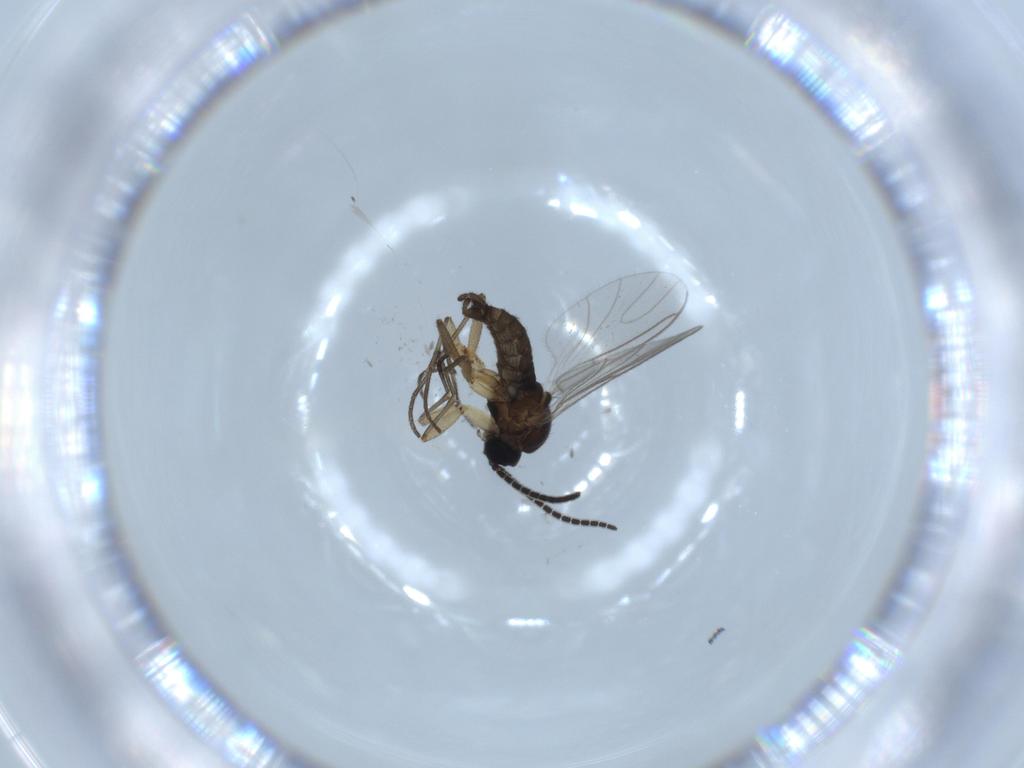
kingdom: Animalia
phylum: Arthropoda
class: Insecta
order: Diptera
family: Sciaridae
